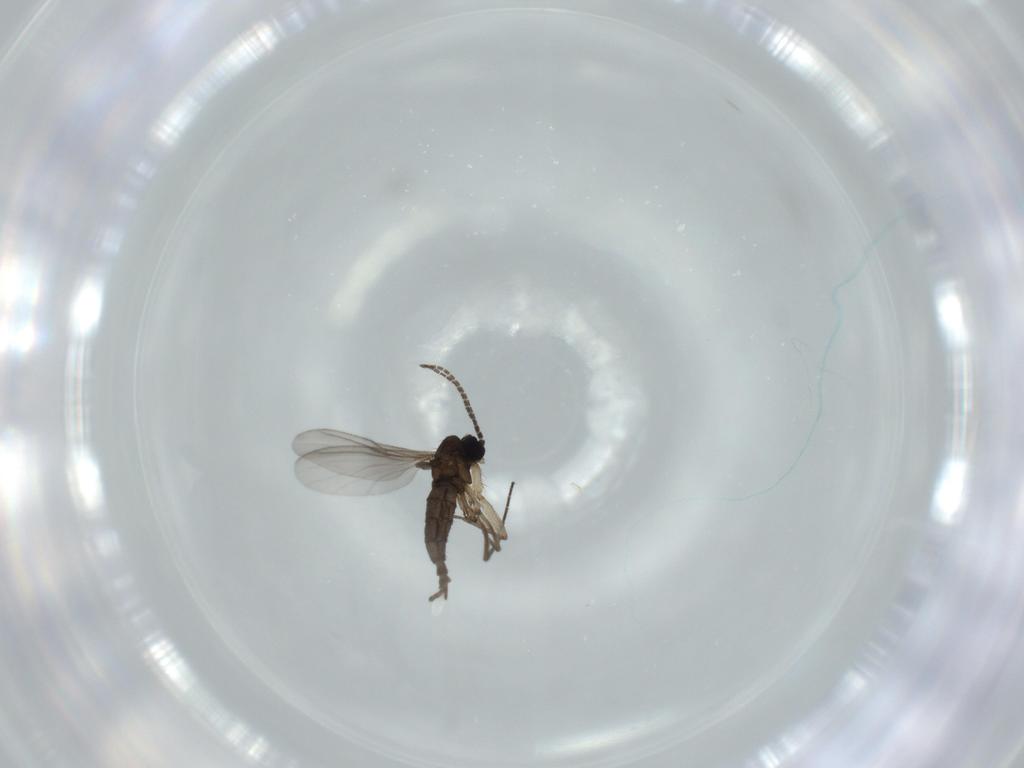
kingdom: Animalia
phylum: Arthropoda
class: Insecta
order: Diptera
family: Sciaridae
